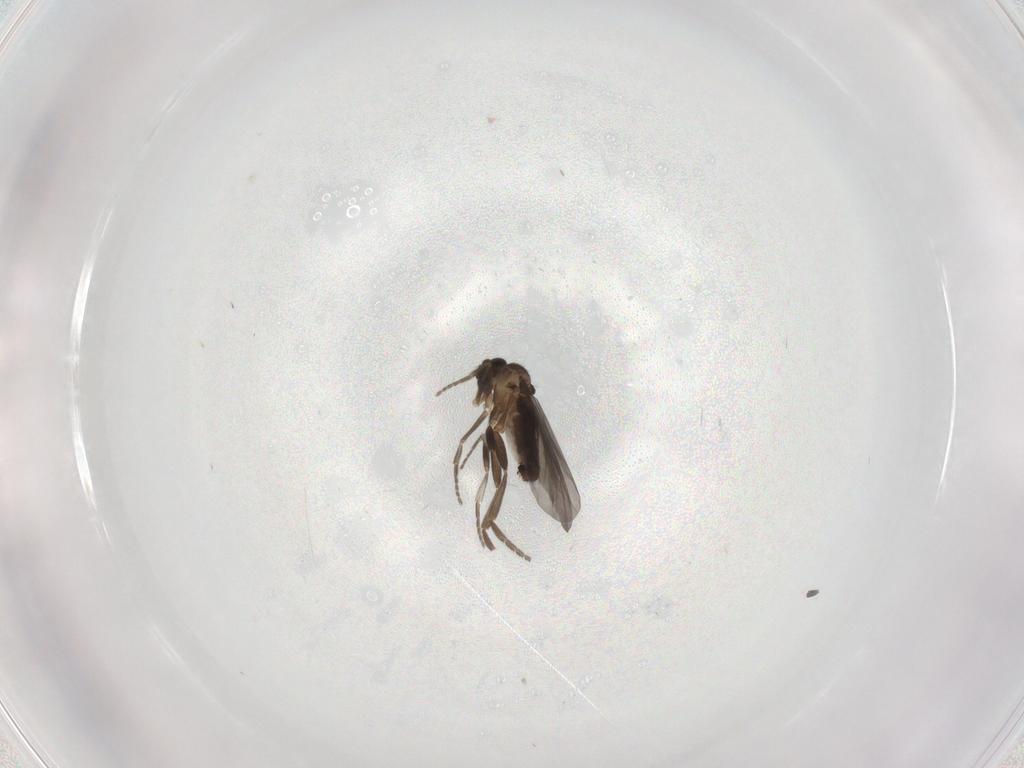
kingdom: Animalia
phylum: Arthropoda
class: Insecta
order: Diptera
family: Phoridae
